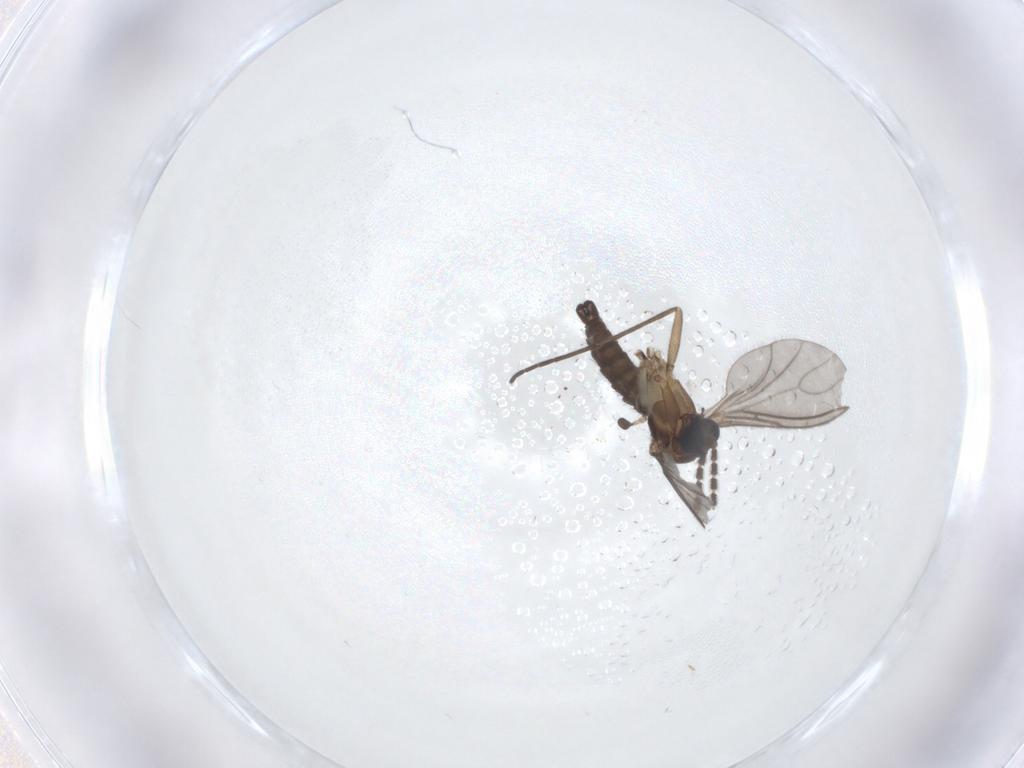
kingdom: Animalia
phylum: Arthropoda
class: Insecta
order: Diptera
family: Sciaridae
